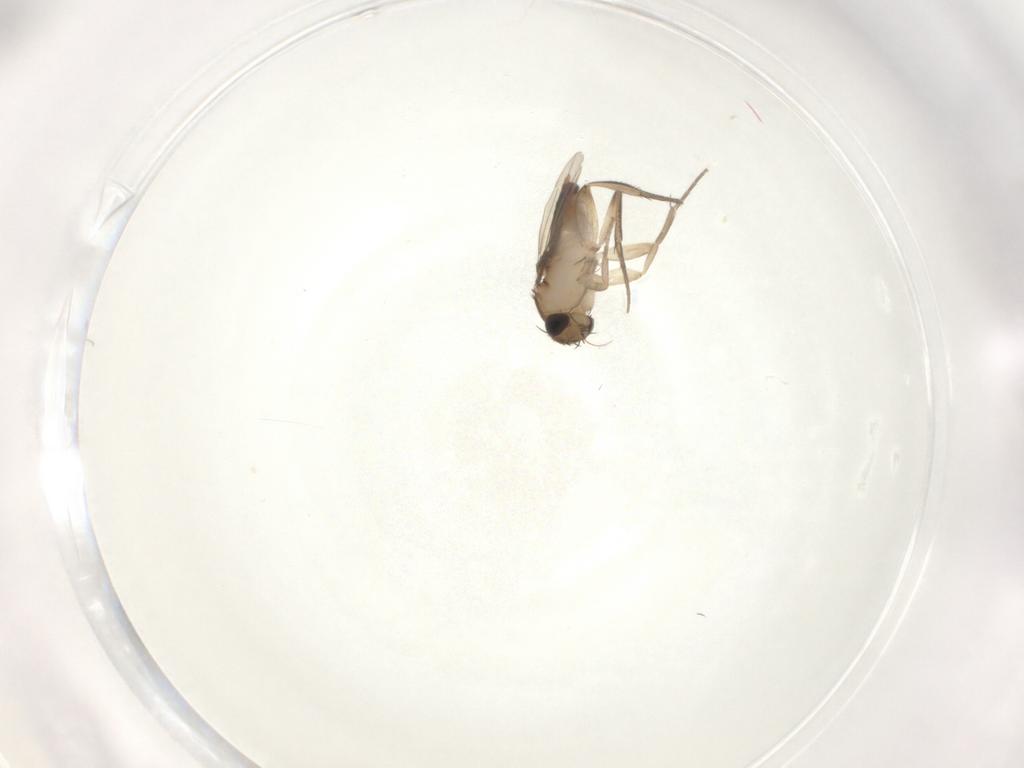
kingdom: Animalia
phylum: Arthropoda
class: Insecta
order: Diptera
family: Phoridae
